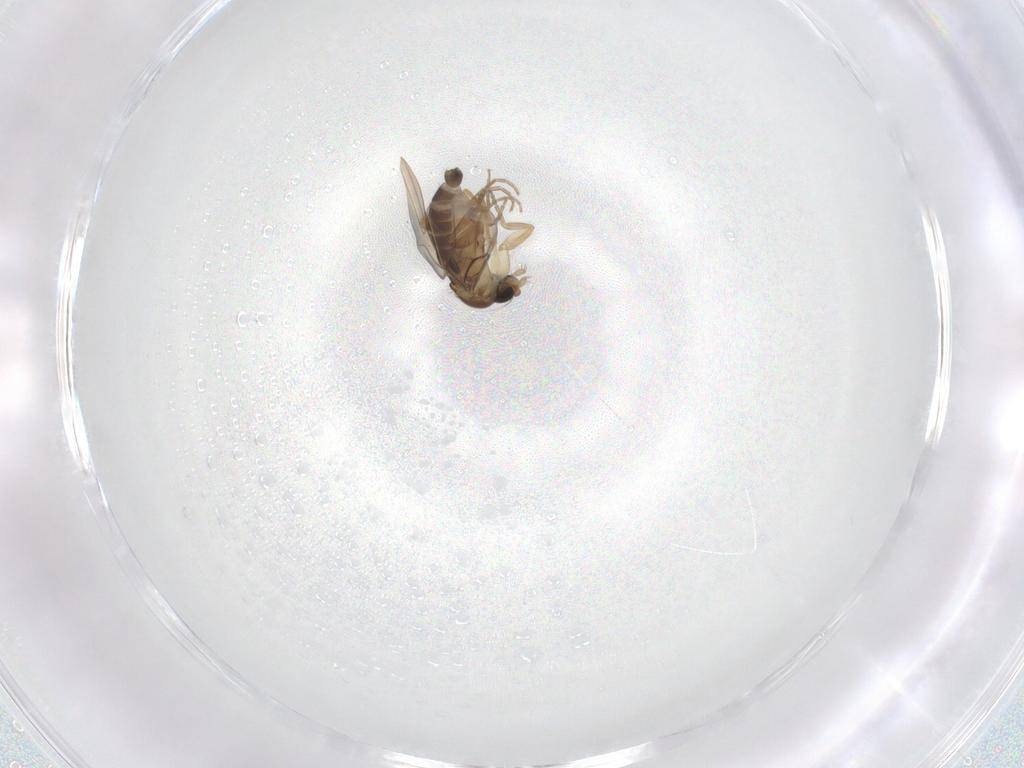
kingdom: Animalia
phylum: Arthropoda
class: Insecta
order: Diptera
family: Phoridae
